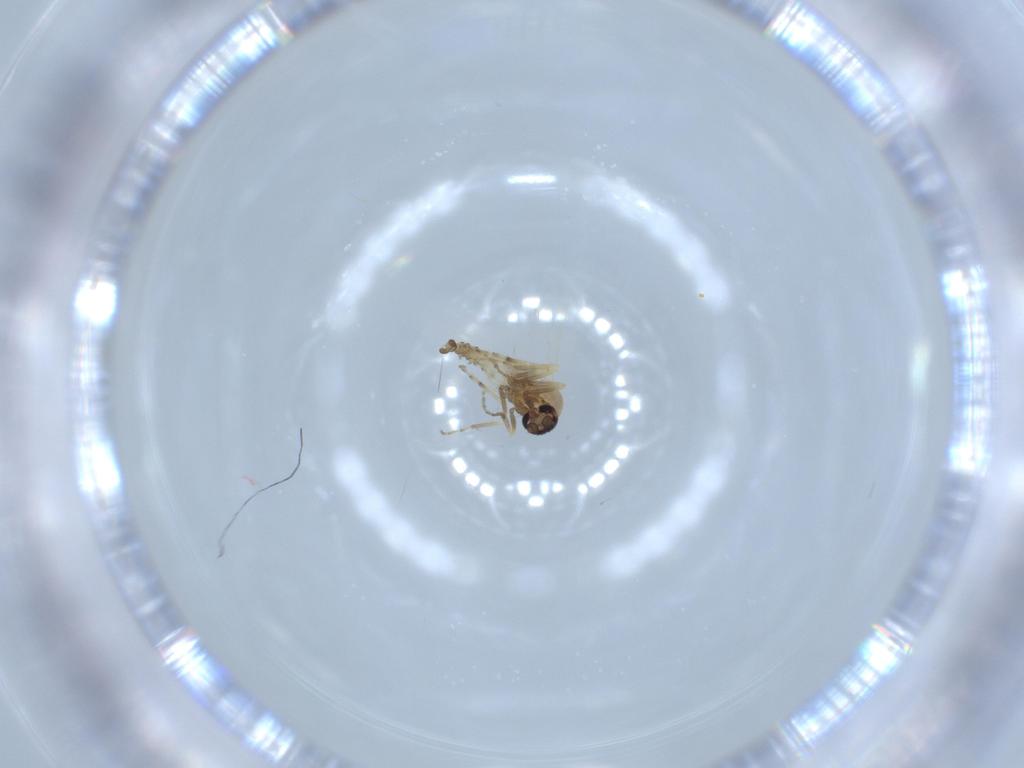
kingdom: Animalia
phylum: Arthropoda
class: Insecta
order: Diptera
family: Ceratopogonidae
